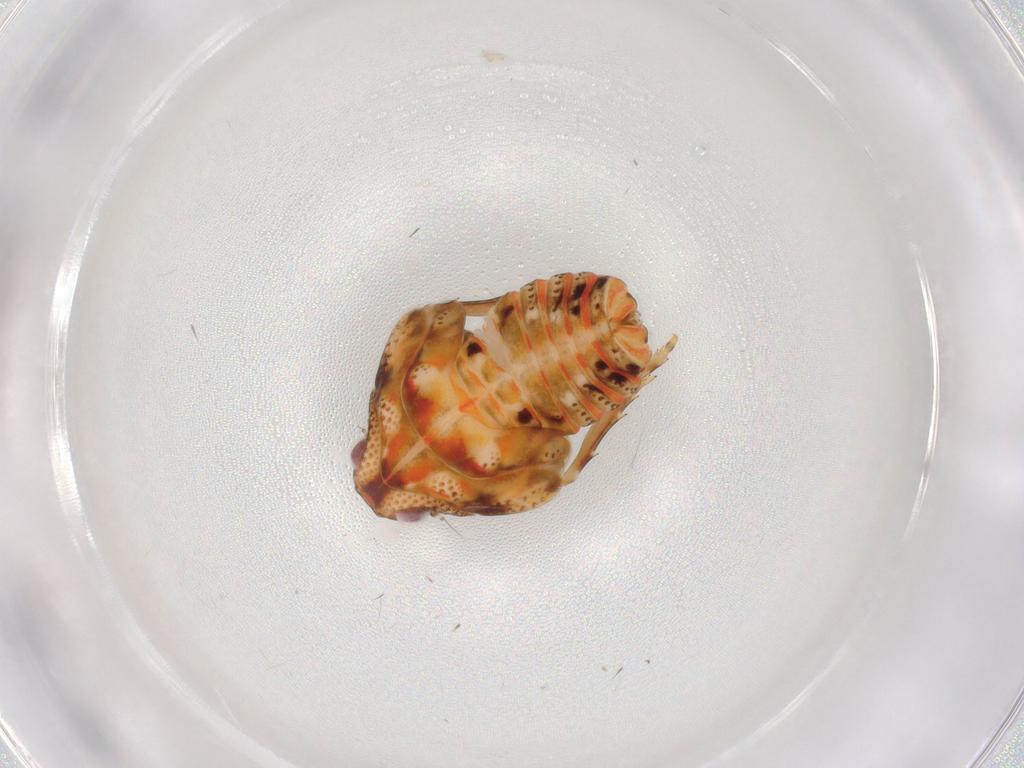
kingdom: Animalia
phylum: Arthropoda
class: Insecta
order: Hemiptera
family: Flatidae
